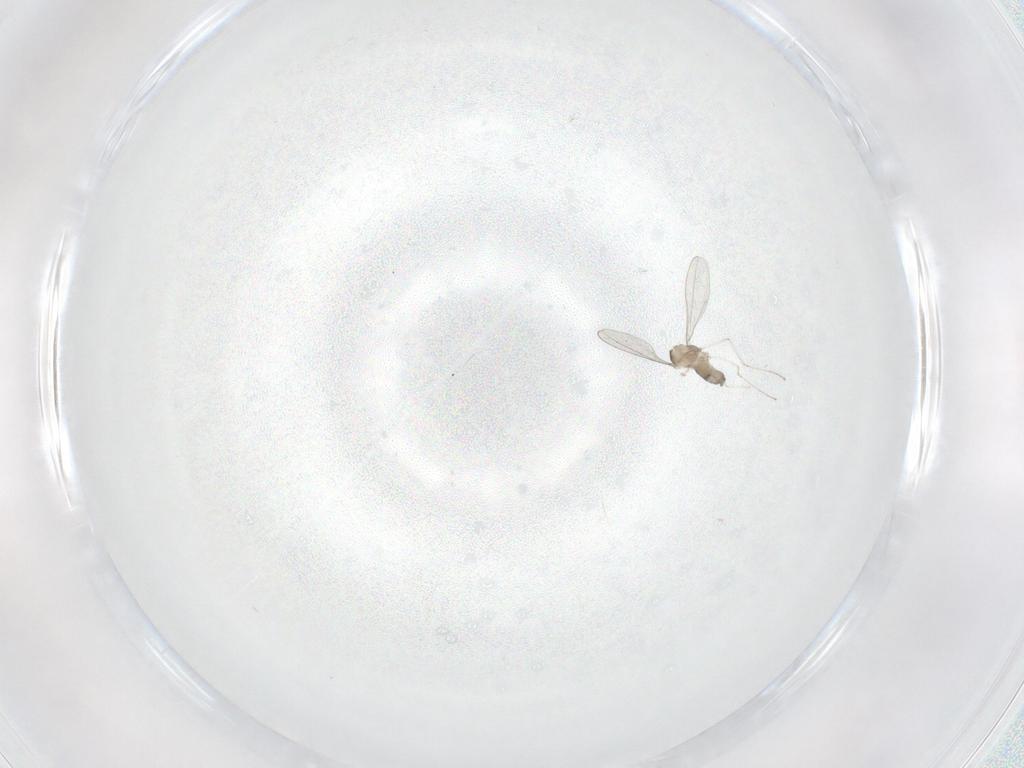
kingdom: Animalia
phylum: Arthropoda
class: Insecta
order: Diptera
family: Cecidomyiidae
